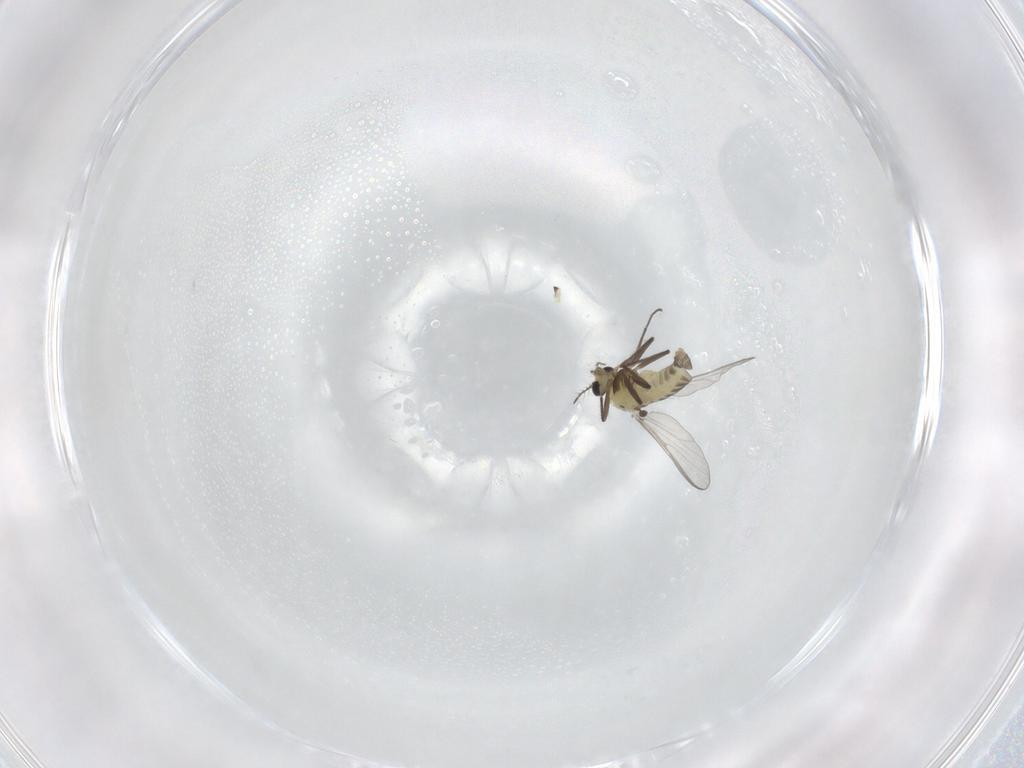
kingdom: Animalia
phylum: Arthropoda
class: Insecta
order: Diptera
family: Chironomidae
